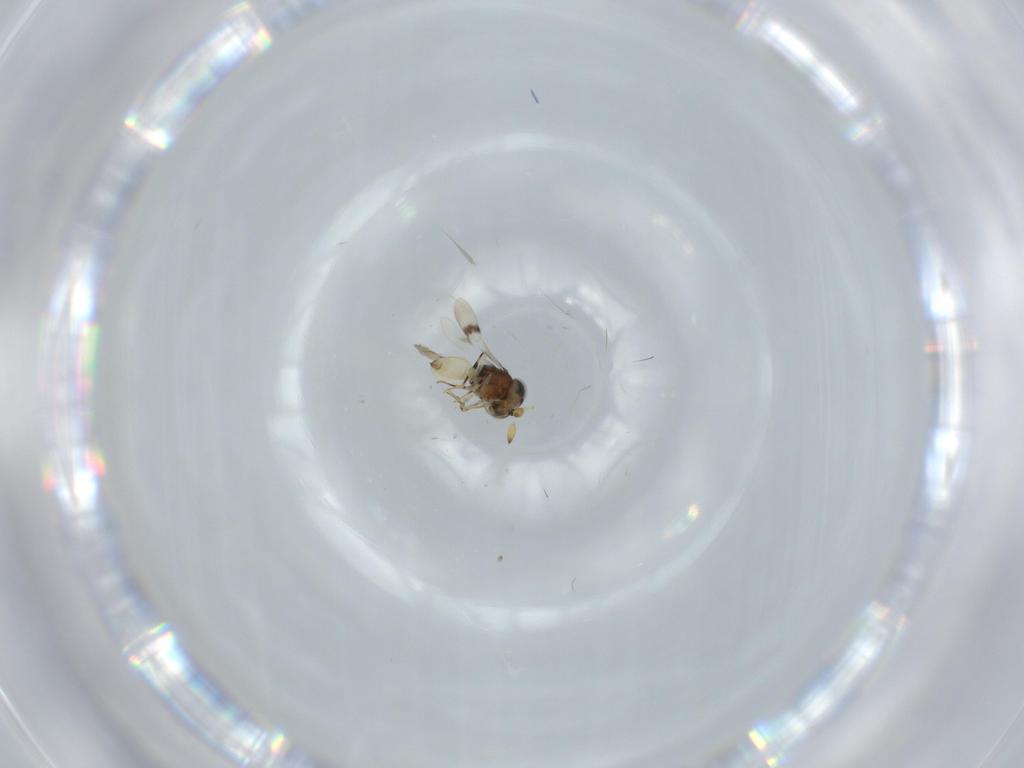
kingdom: Animalia
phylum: Arthropoda
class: Insecta
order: Hymenoptera
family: Scelionidae
